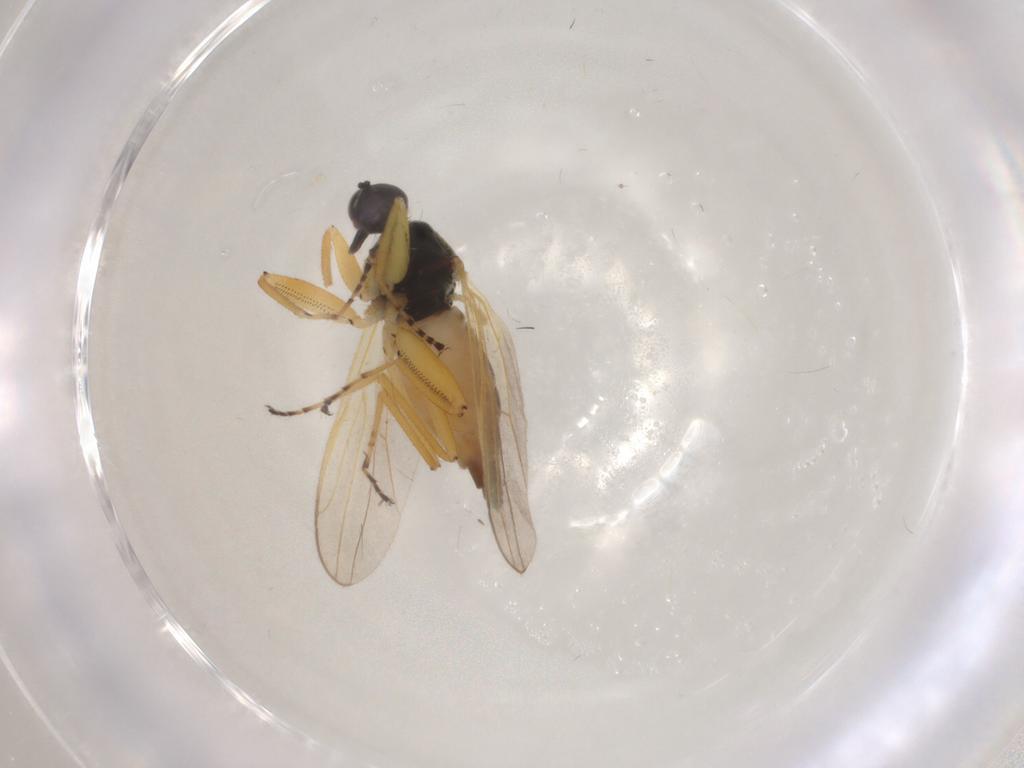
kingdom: Animalia
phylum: Arthropoda
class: Insecta
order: Diptera
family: Hybotidae
